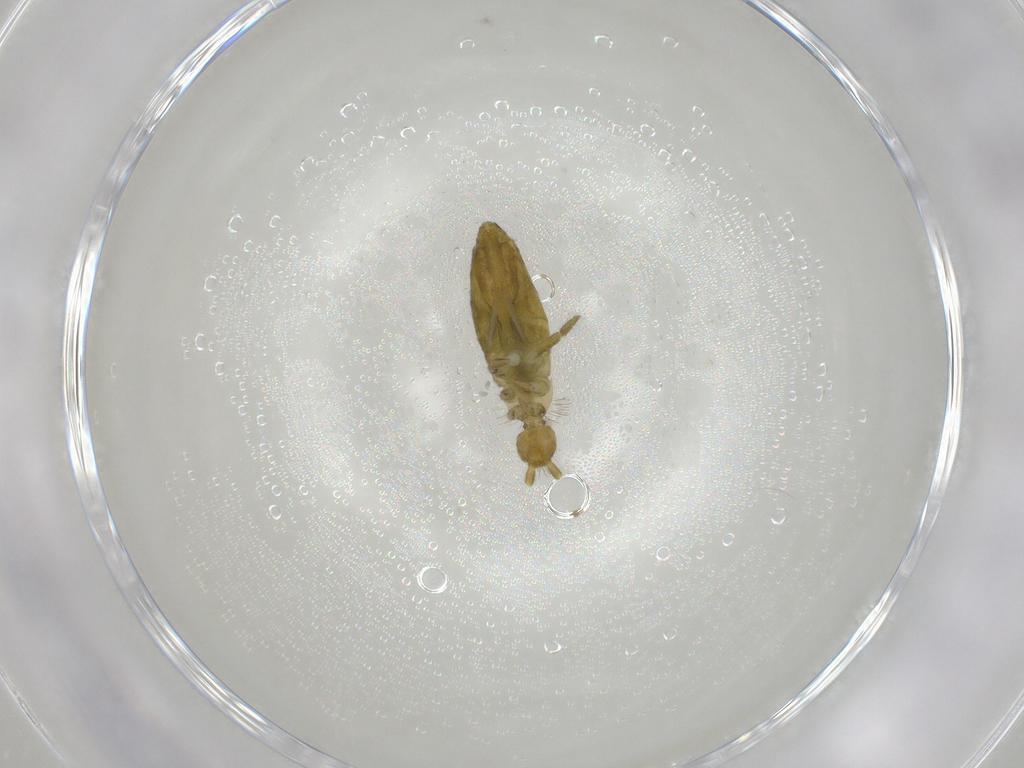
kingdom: Animalia
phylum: Arthropoda
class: Collembola
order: Entomobryomorpha
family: Entomobryidae
